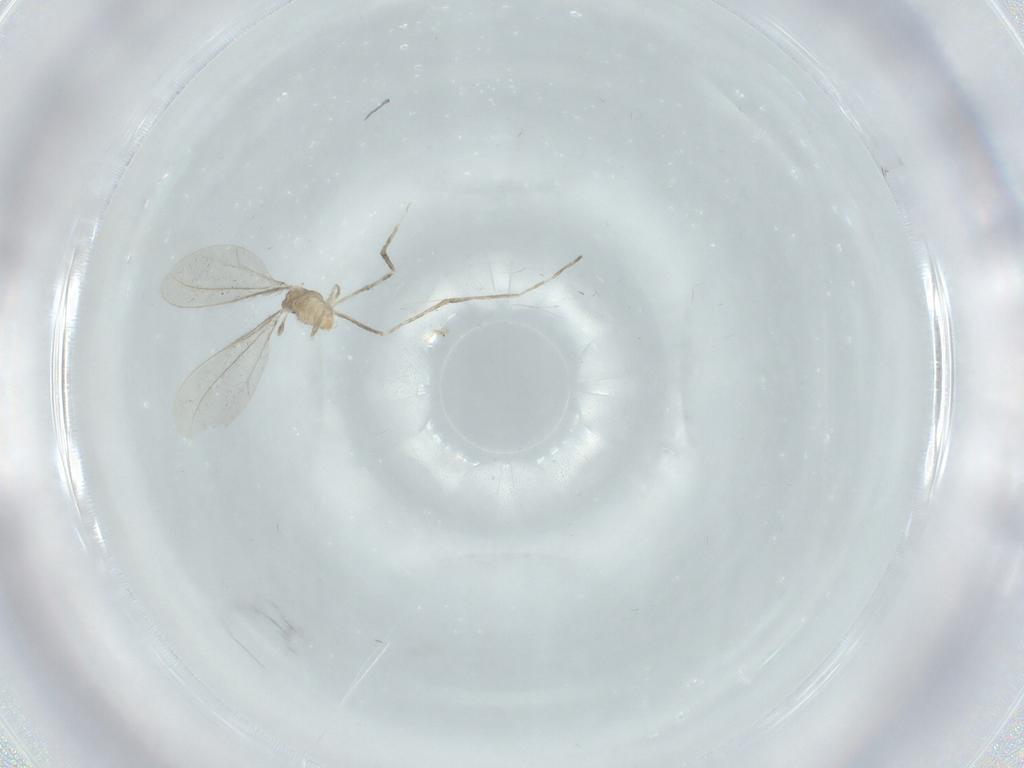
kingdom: Animalia
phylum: Arthropoda
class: Insecta
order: Diptera
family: Cecidomyiidae
